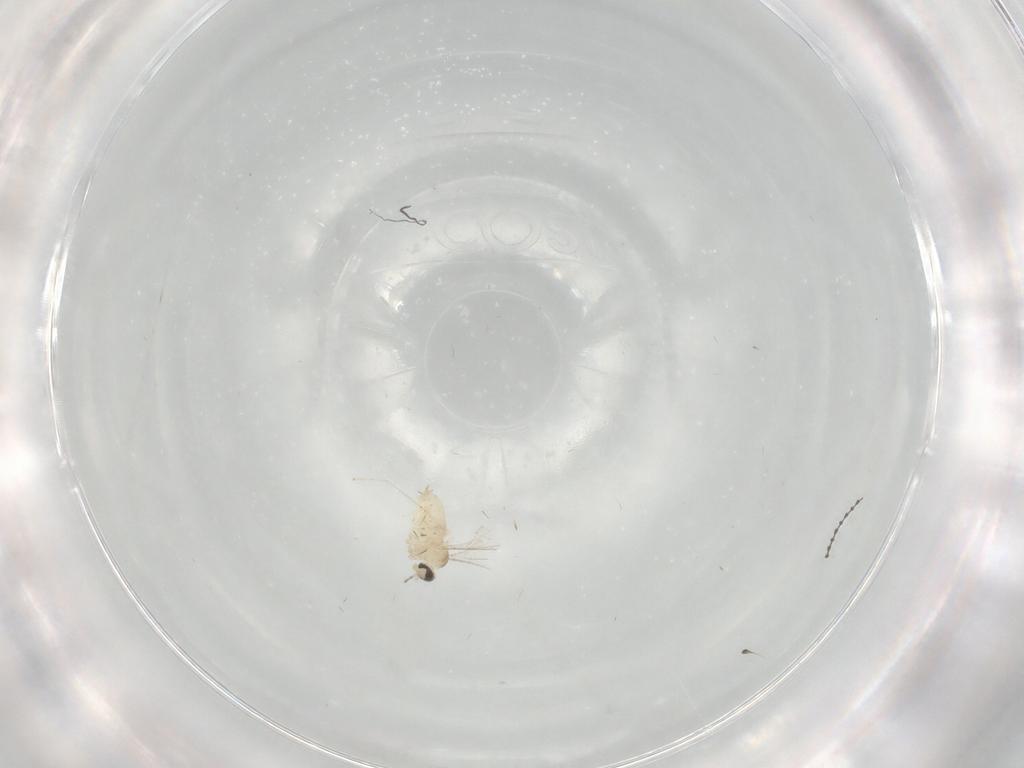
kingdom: Animalia
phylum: Arthropoda
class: Insecta
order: Diptera
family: Cecidomyiidae
